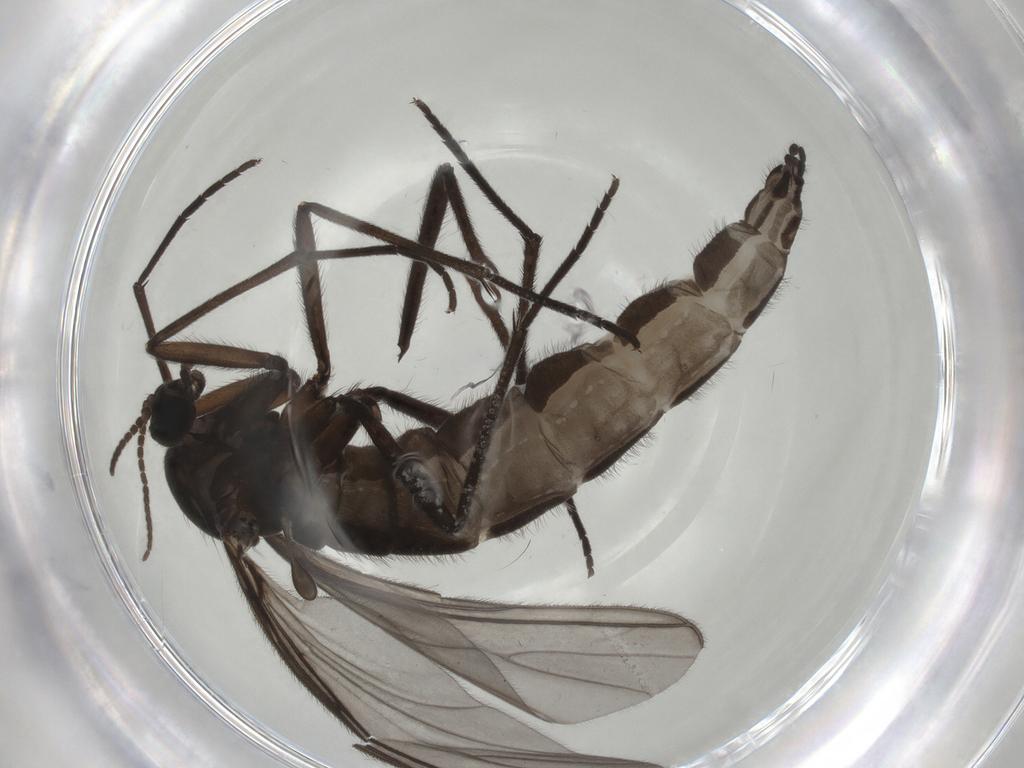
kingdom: Animalia
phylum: Arthropoda
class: Insecta
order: Diptera
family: Sciaridae
